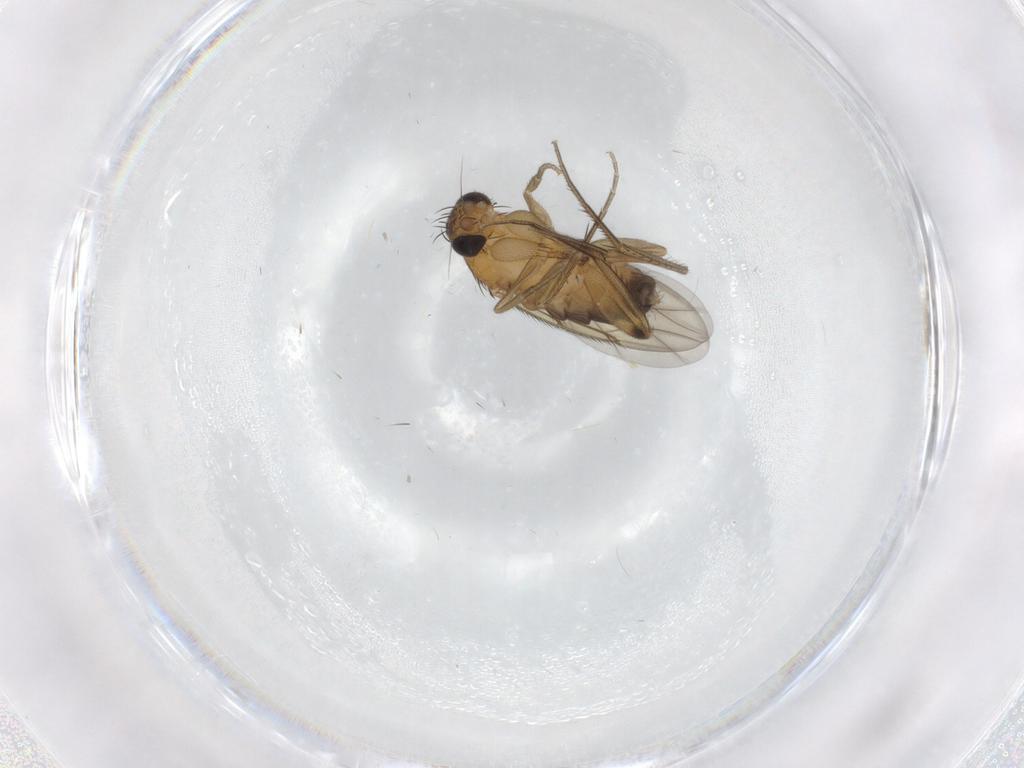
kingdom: Animalia
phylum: Arthropoda
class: Insecta
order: Diptera
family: Phoridae
